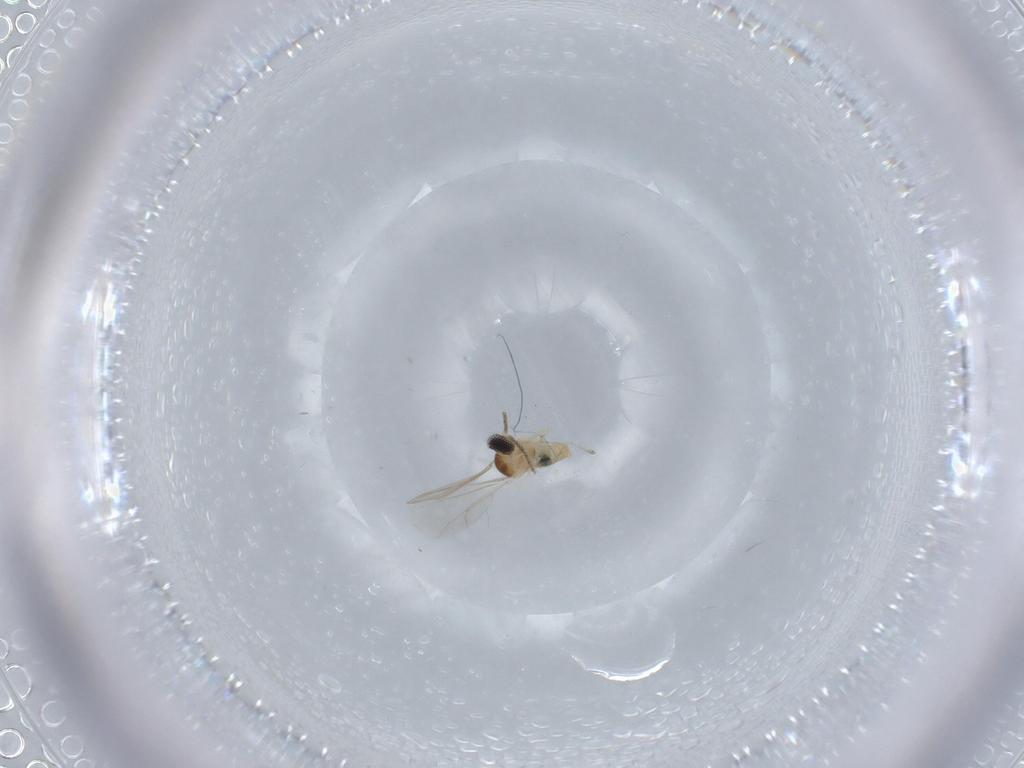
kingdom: Animalia
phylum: Arthropoda
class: Insecta
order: Diptera
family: Cecidomyiidae
